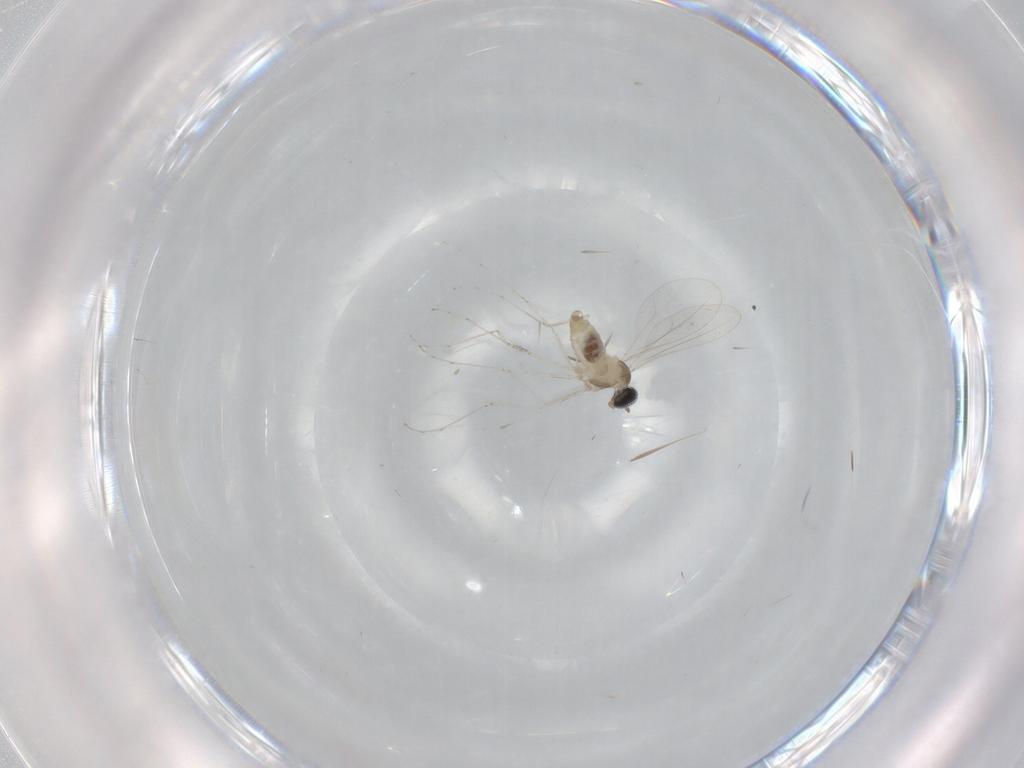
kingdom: Animalia
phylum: Arthropoda
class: Insecta
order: Diptera
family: Cecidomyiidae
